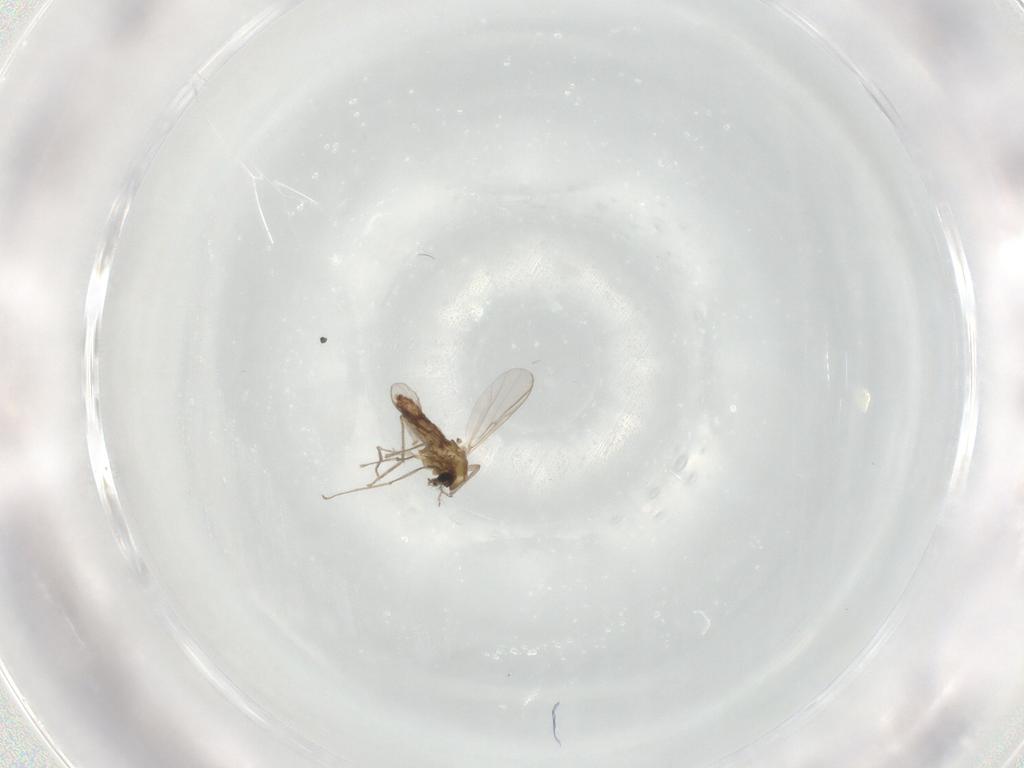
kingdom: Animalia
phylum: Arthropoda
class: Insecta
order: Diptera
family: Chironomidae
